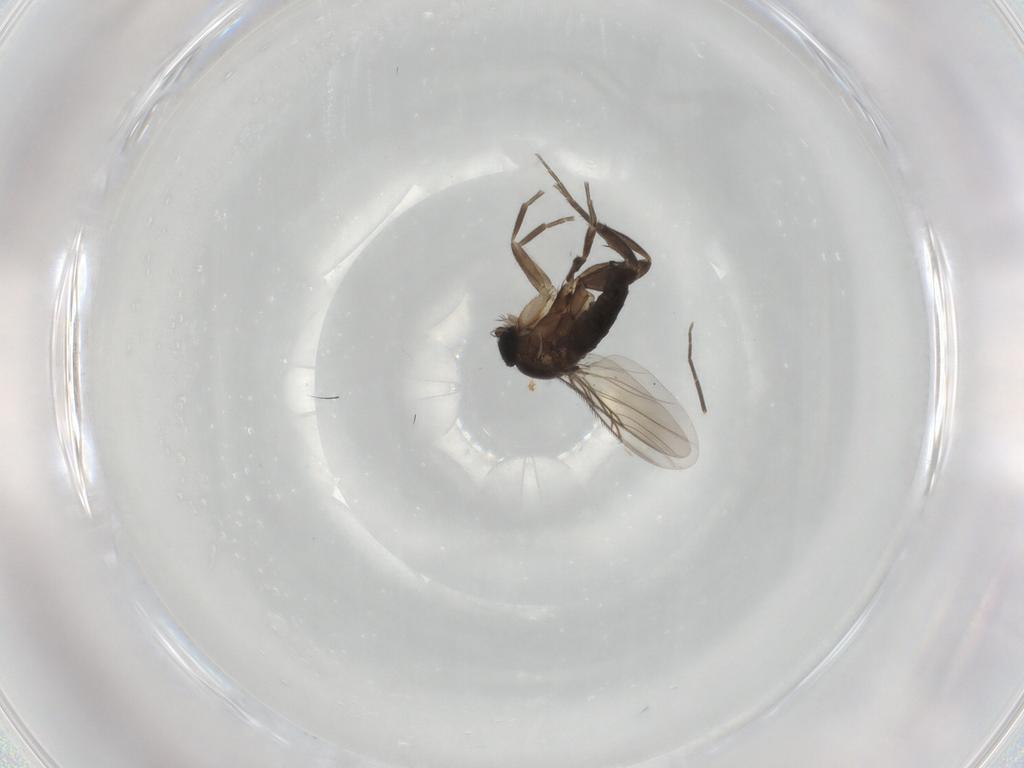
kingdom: Animalia
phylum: Arthropoda
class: Insecta
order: Diptera
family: Phoridae
